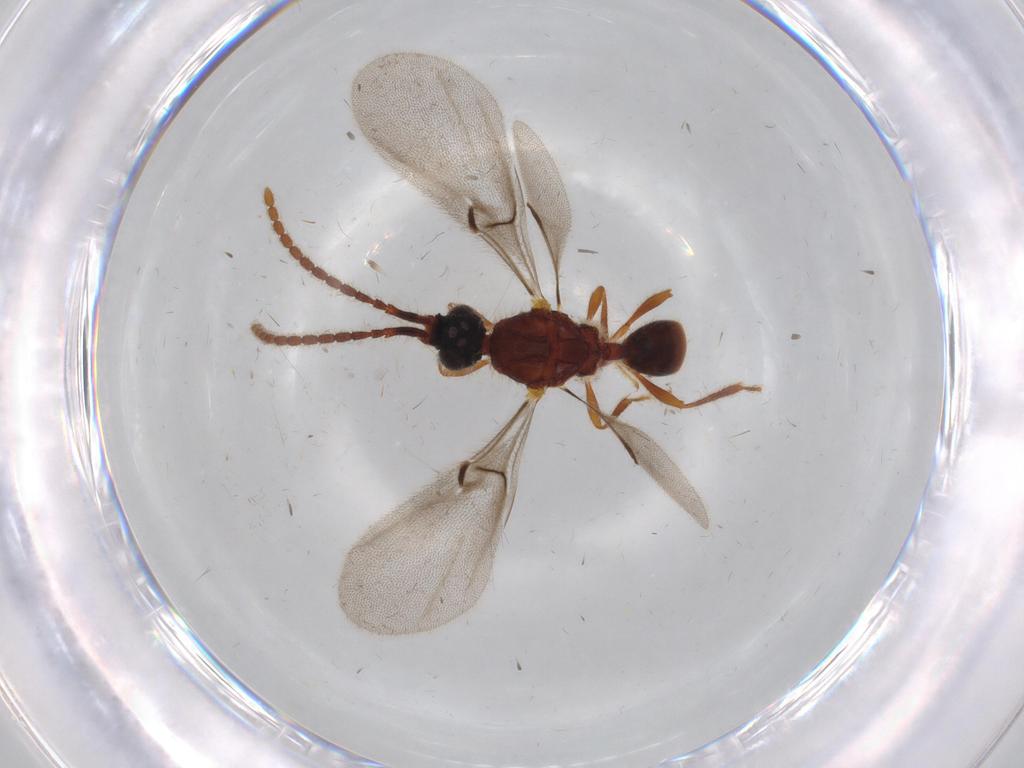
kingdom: Animalia
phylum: Arthropoda
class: Insecta
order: Hymenoptera
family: Diapriidae
